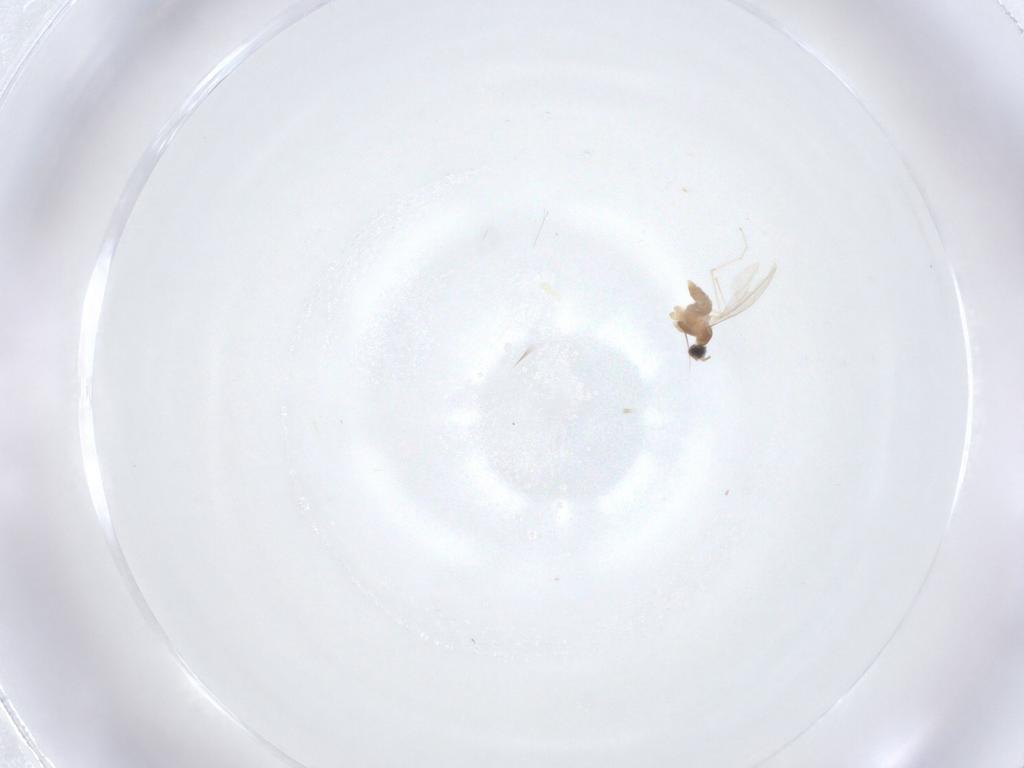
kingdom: Animalia
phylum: Arthropoda
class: Insecta
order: Diptera
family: Cecidomyiidae
